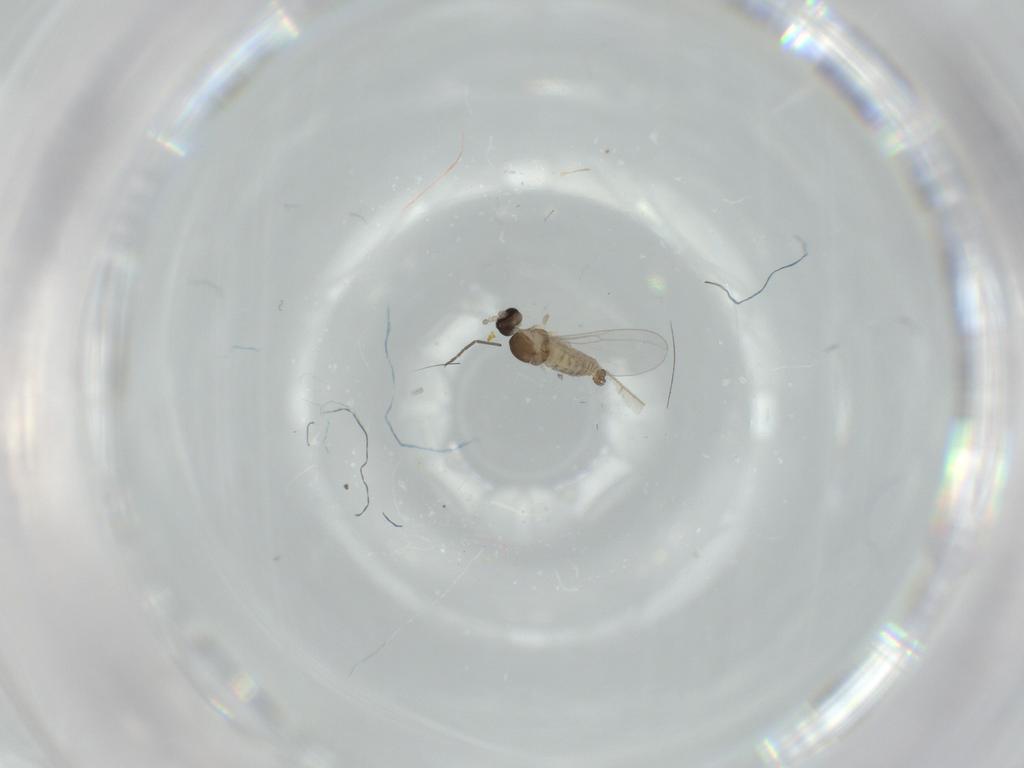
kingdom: Animalia
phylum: Arthropoda
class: Insecta
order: Diptera
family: Cecidomyiidae
